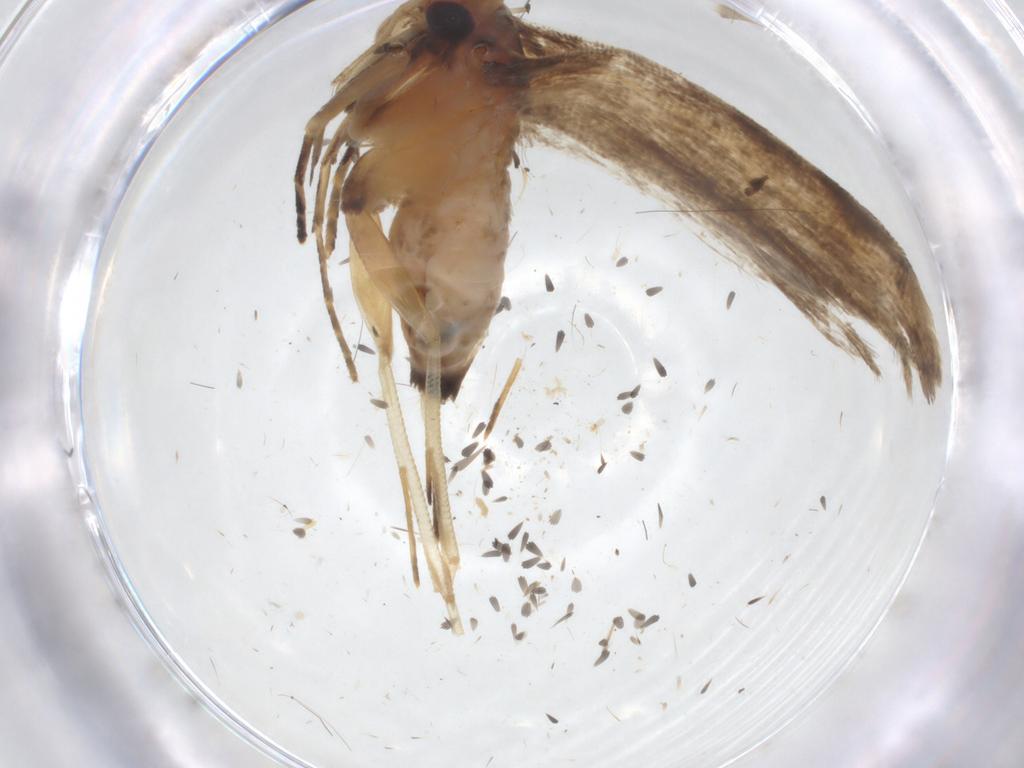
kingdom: Animalia
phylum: Arthropoda
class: Insecta
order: Lepidoptera
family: Gelechiidae
